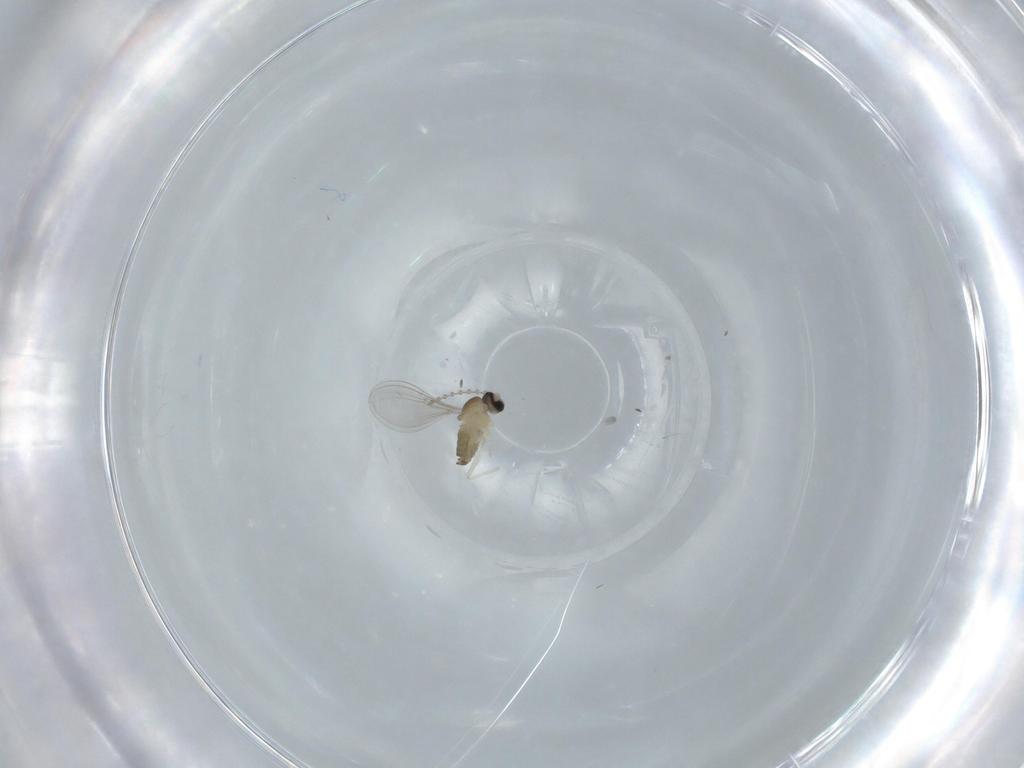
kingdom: Animalia
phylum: Arthropoda
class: Insecta
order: Diptera
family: Cecidomyiidae
